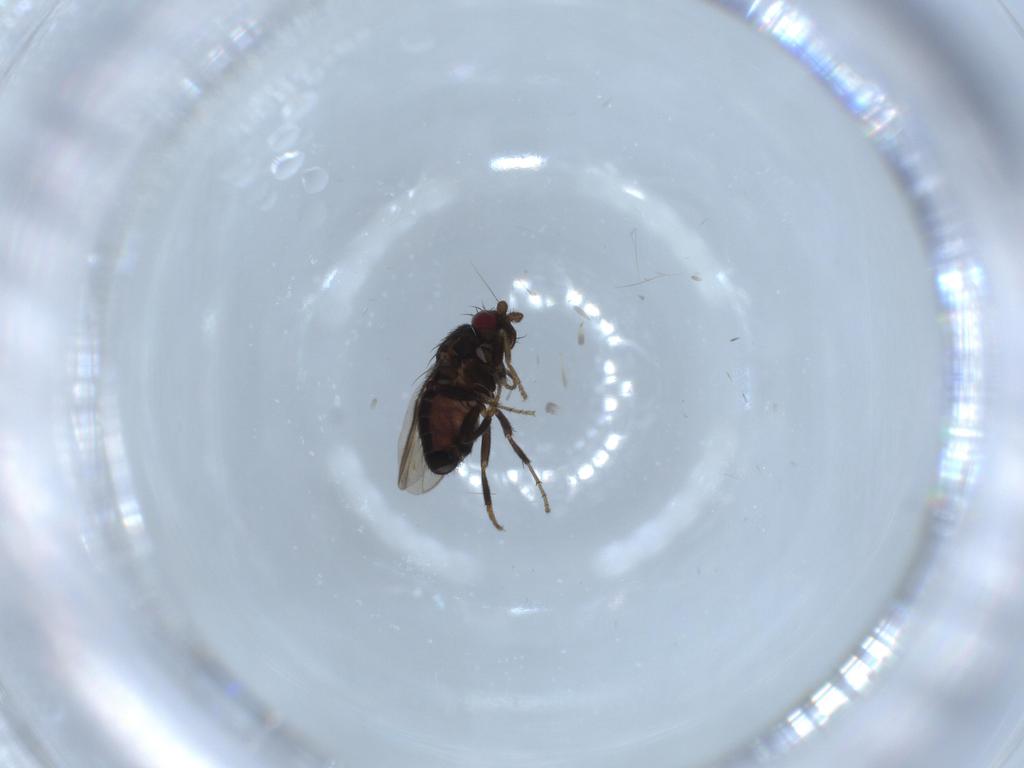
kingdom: Animalia
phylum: Arthropoda
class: Insecta
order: Diptera
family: Sphaeroceridae
